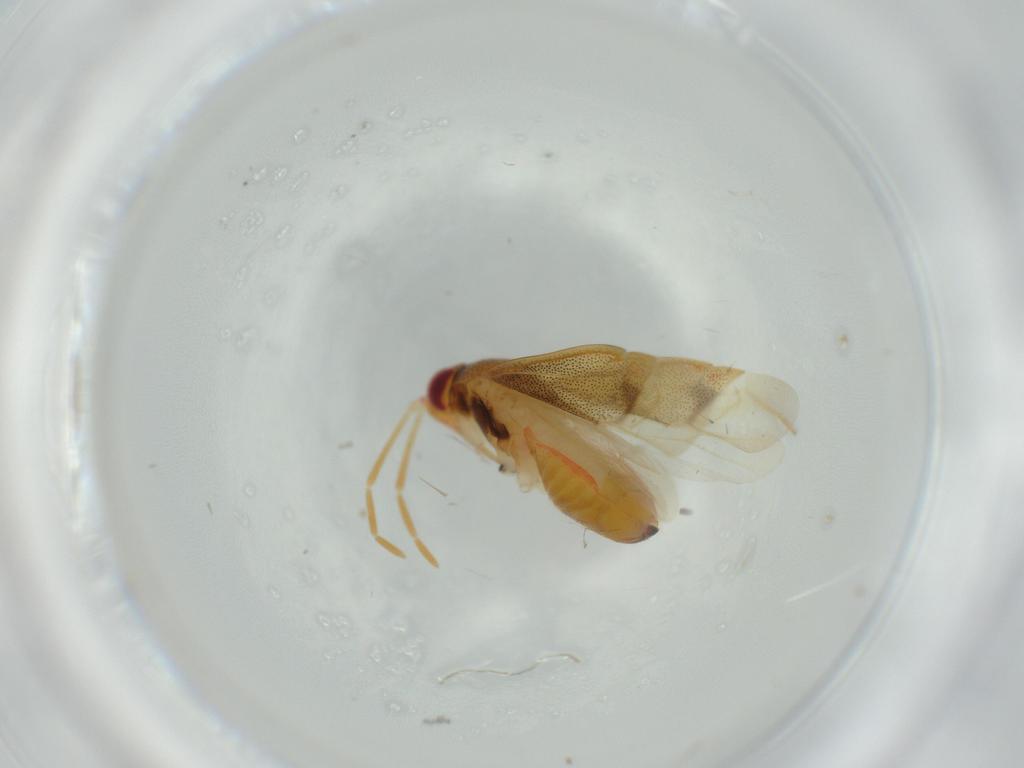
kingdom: Animalia
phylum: Arthropoda
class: Insecta
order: Hemiptera
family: Miridae
